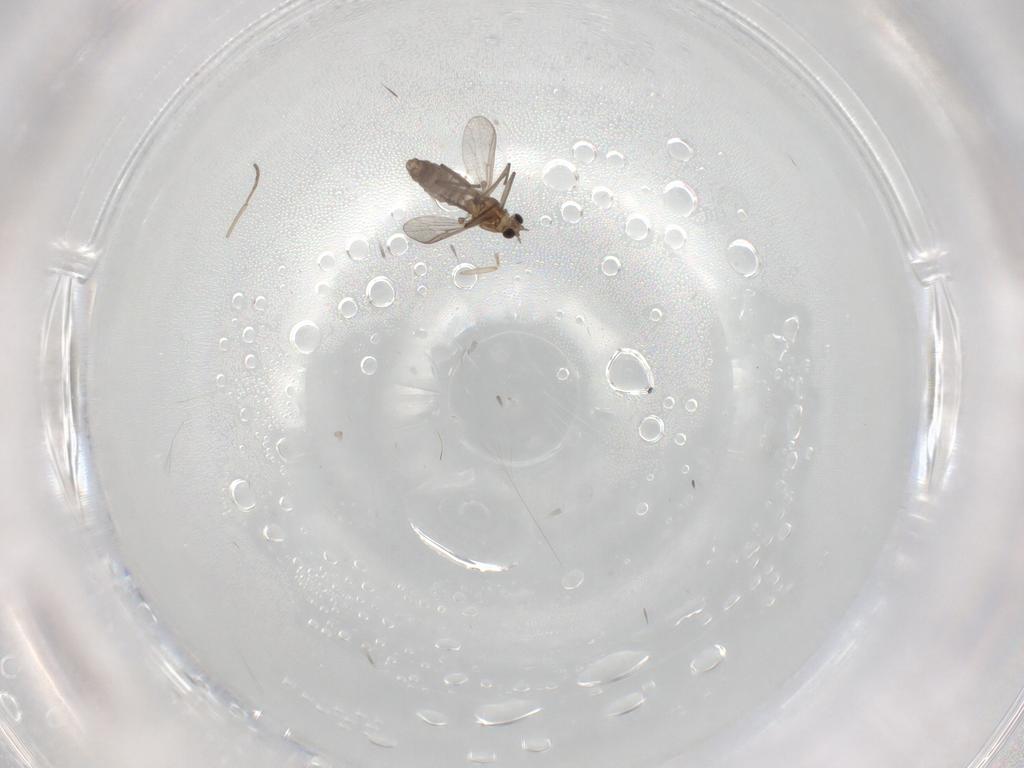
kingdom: Animalia
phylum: Arthropoda
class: Insecta
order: Diptera
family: Chironomidae
